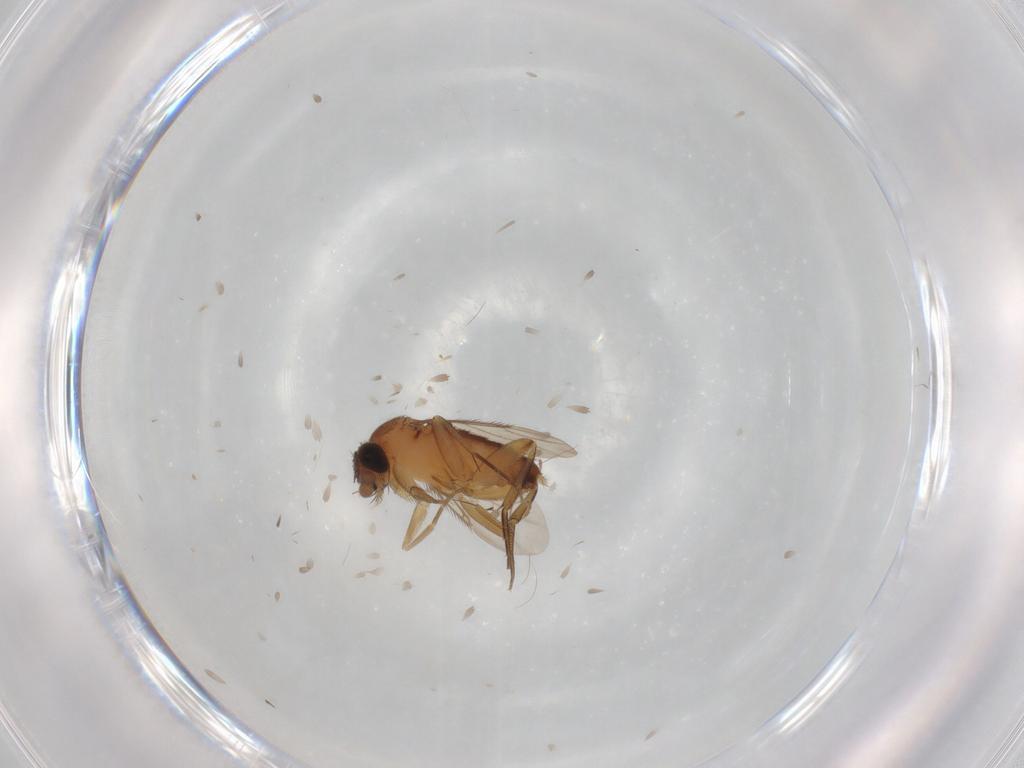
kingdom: Animalia
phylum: Arthropoda
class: Insecta
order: Diptera
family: Phoridae
